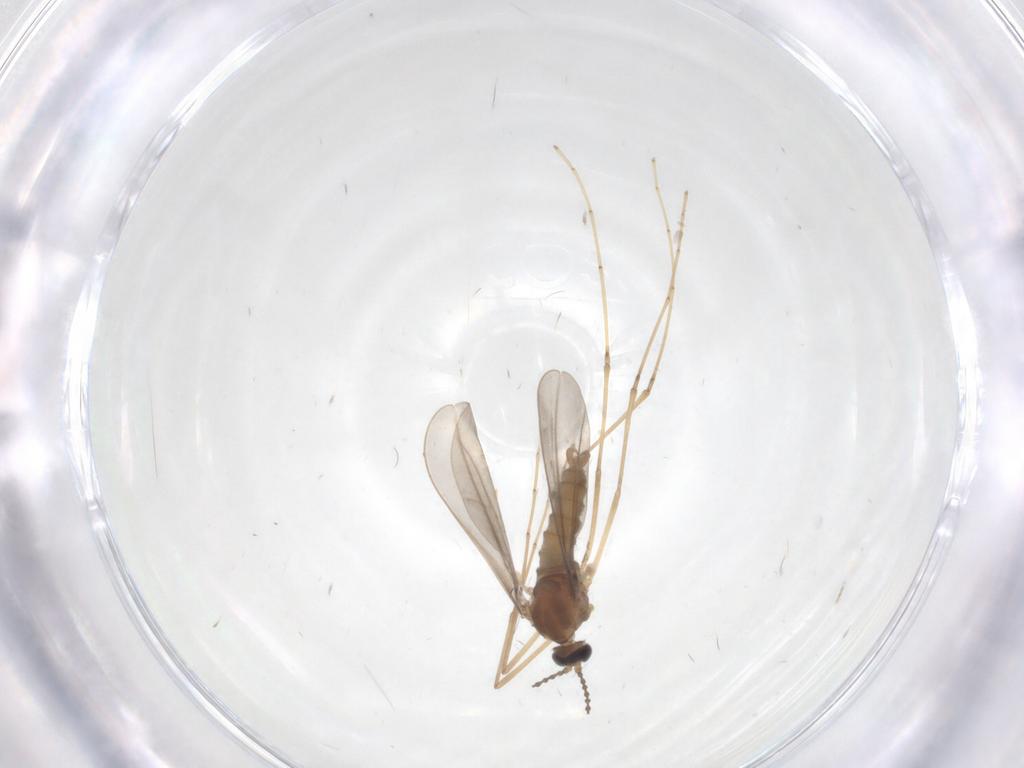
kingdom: Animalia
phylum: Arthropoda
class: Insecta
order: Diptera
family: Cecidomyiidae
